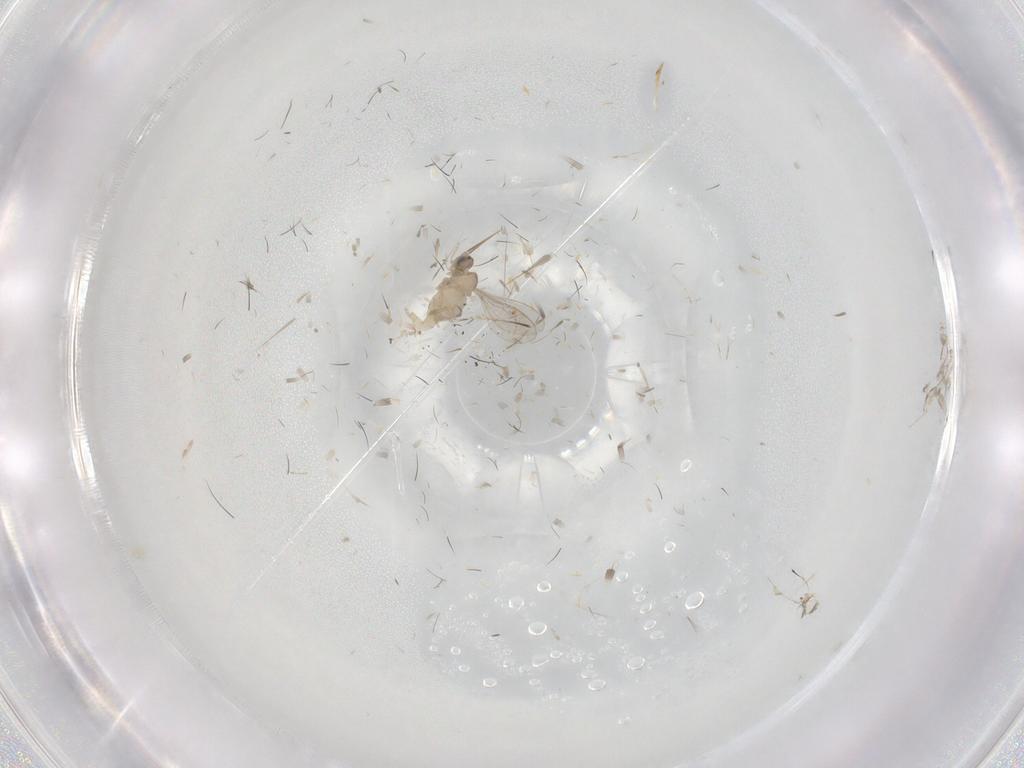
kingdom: Animalia
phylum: Arthropoda
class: Insecta
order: Diptera
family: Cecidomyiidae
